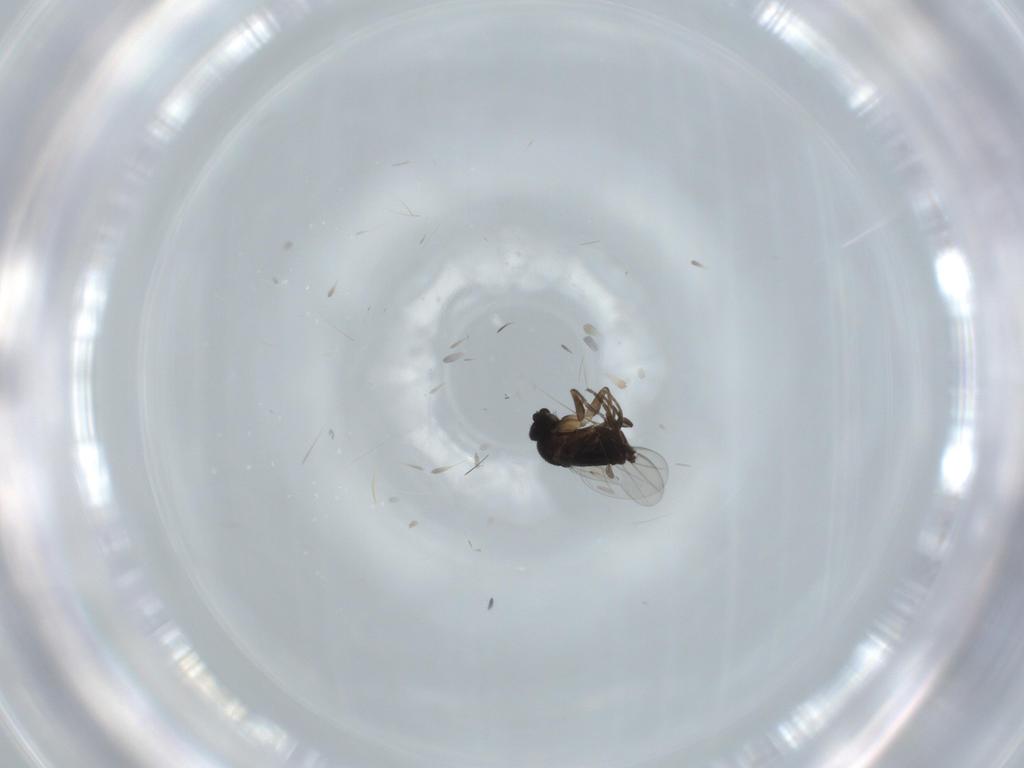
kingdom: Animalia
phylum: Arthropoda
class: Insecta
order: Diptera
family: Phoridae
